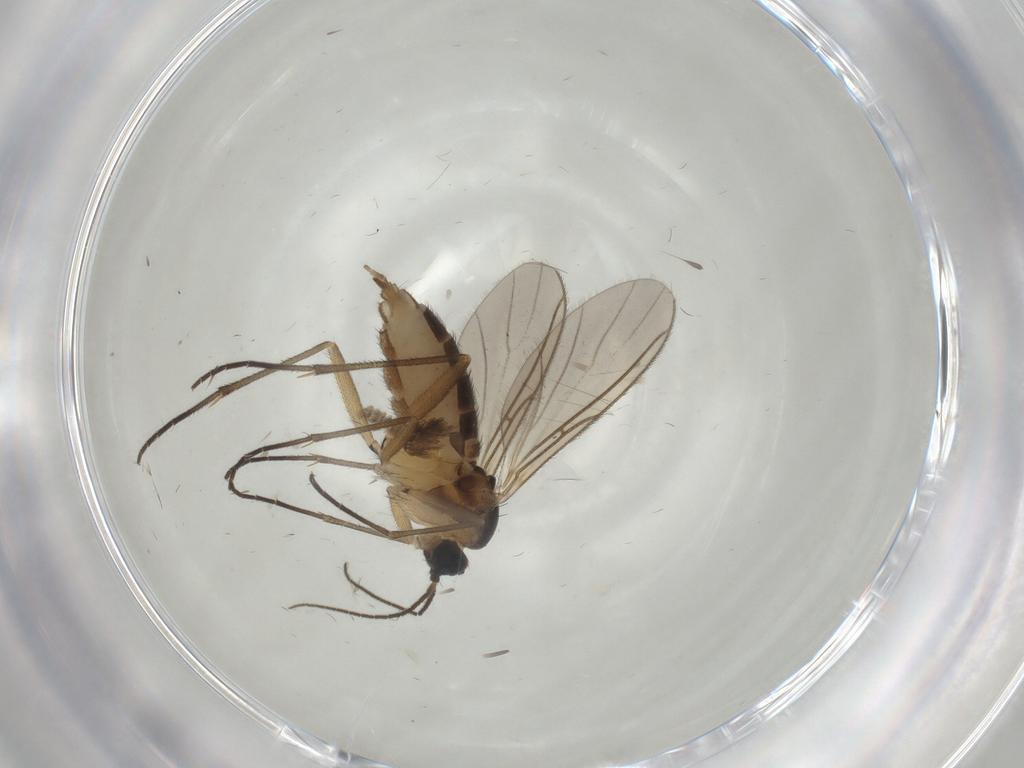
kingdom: Animalia
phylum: Arthropoda
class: Insecta
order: Diptera
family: Sciaridae
